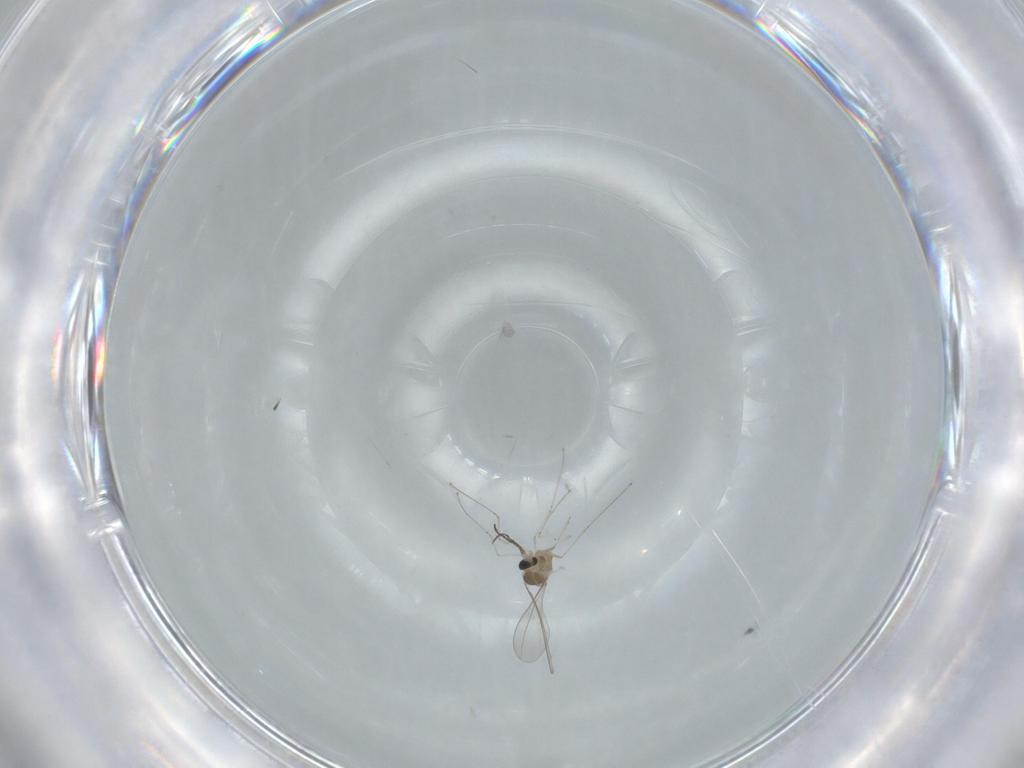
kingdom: Animalia
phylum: Arthropoda
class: Insecta
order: Diptera
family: Cecidomyiidae
